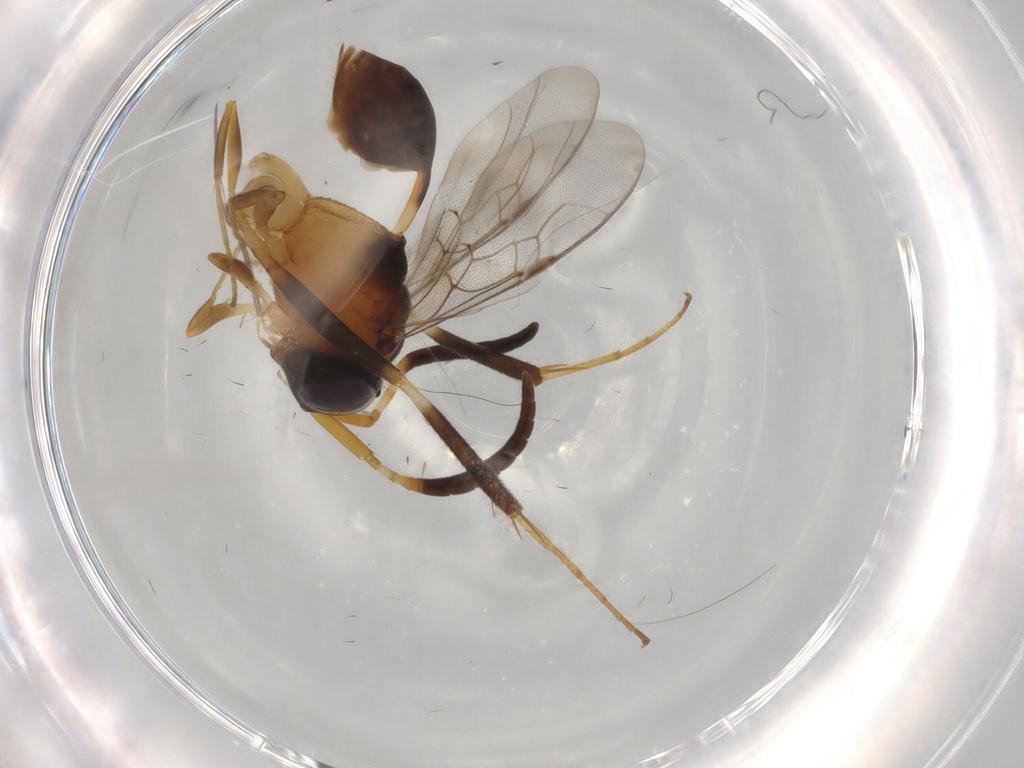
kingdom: Animalia
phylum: Arthropoda
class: Insecta
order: Hymenoptera
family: Evaniidae
